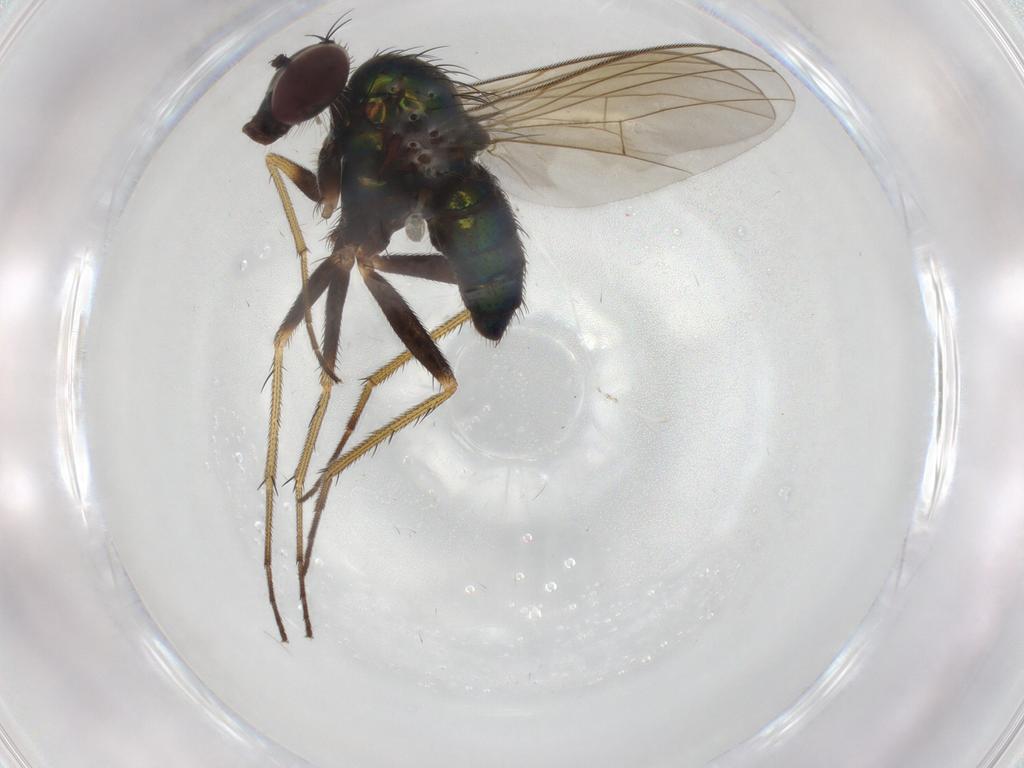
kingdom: Animalia
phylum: Arthropoda
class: Insecta
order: Diptera
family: Dolichopodidae
